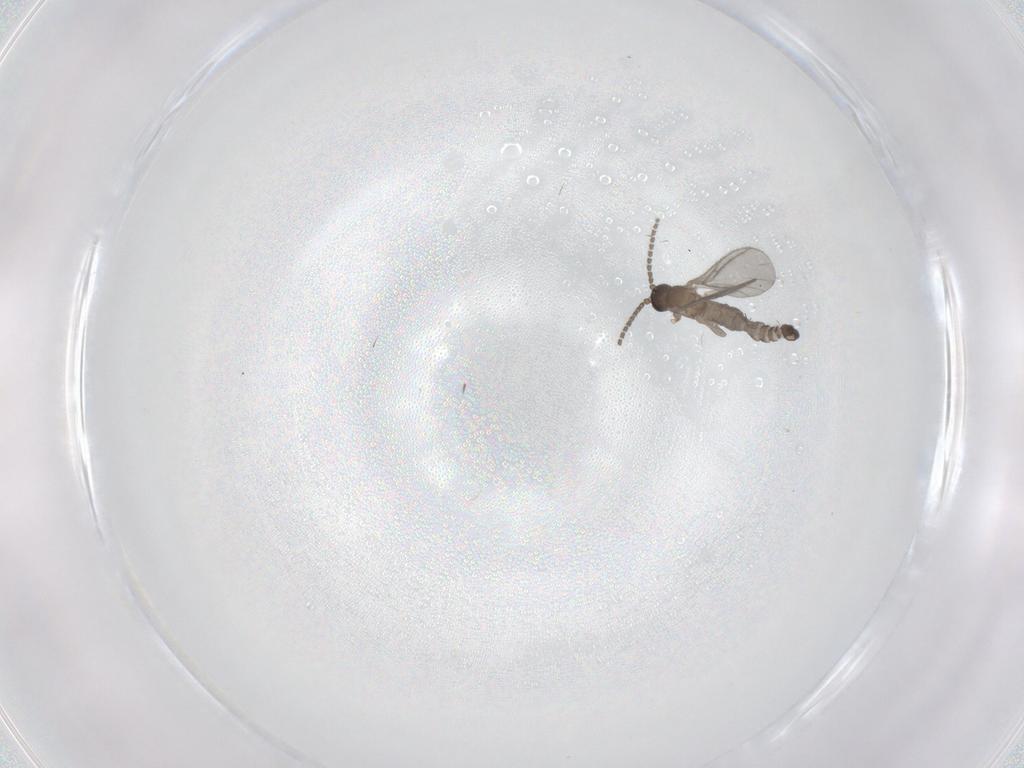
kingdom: Animalia
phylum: Arthropoda
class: Insecta
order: Diptera
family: Sciaridae
